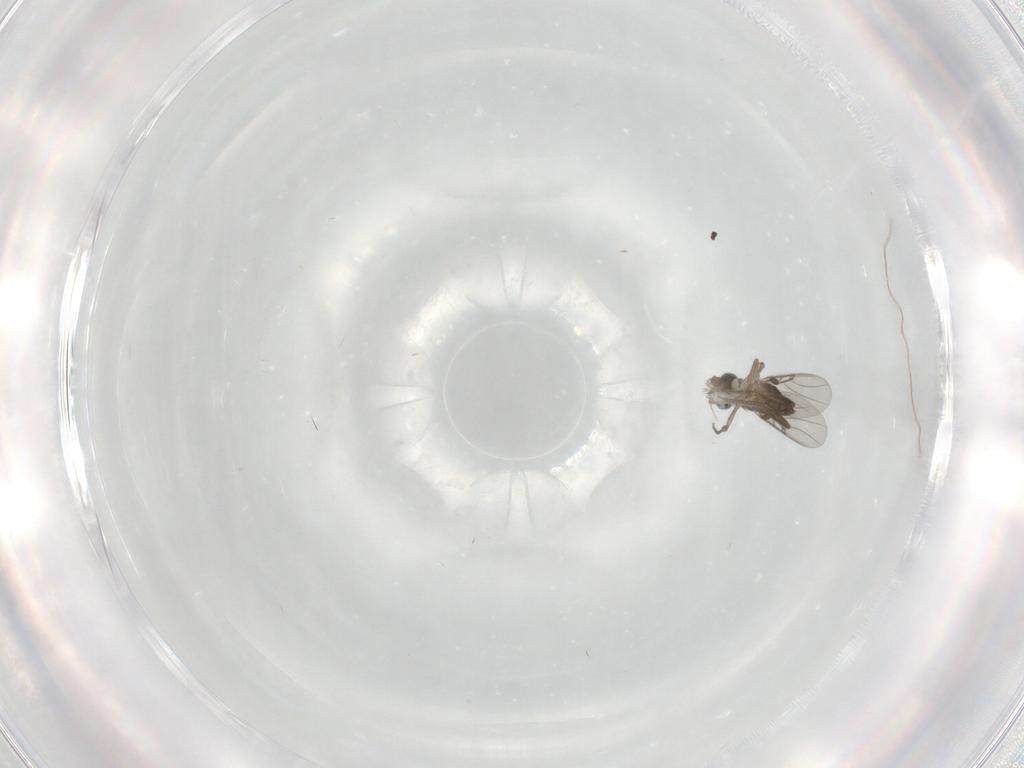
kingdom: Animalia
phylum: Arthropoda
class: Insecta
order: Diptera
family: Phoridae
